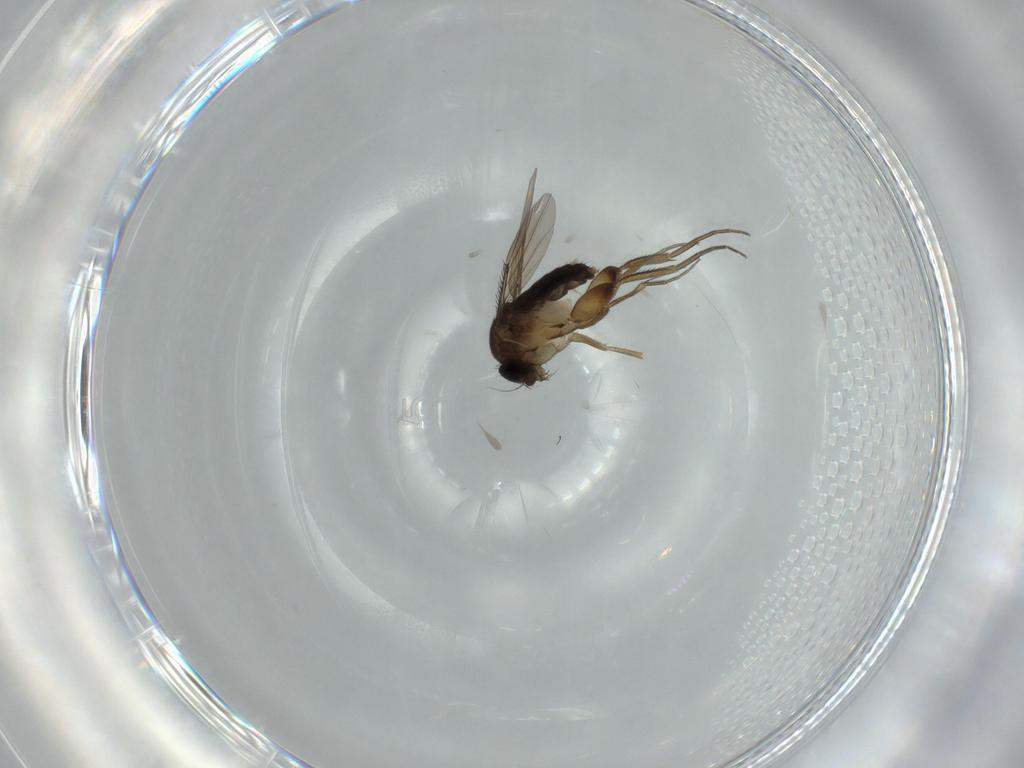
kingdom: Animalia
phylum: Arthropoda
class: Insecta
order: Diptera
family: Phoridae
